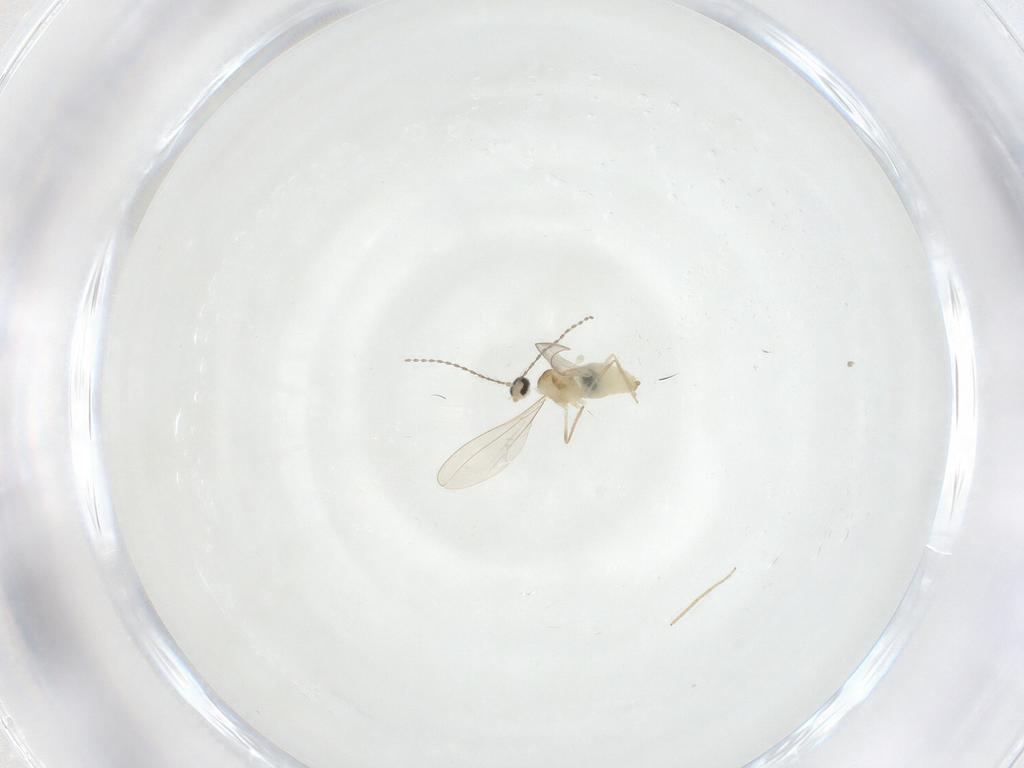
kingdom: Animalia
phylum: Arthropoda
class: Insecta
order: Diptera
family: Cecidomyiidae
